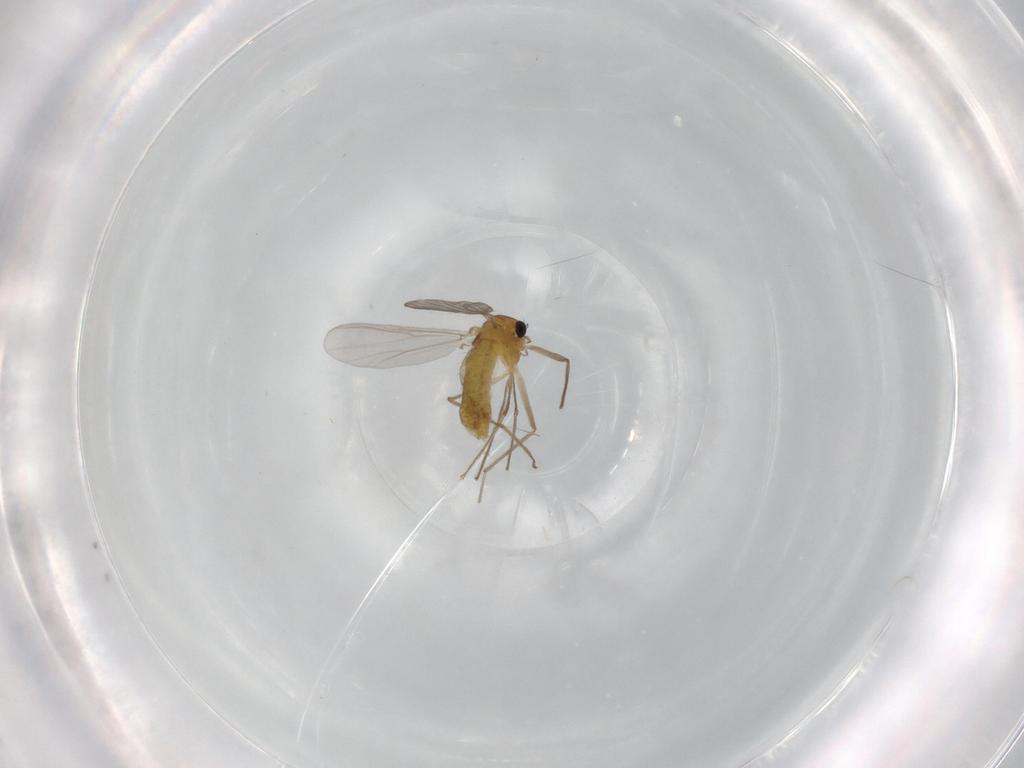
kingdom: Animalia
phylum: Arthropoda
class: Insecta
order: Diptera
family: Chironomidae
